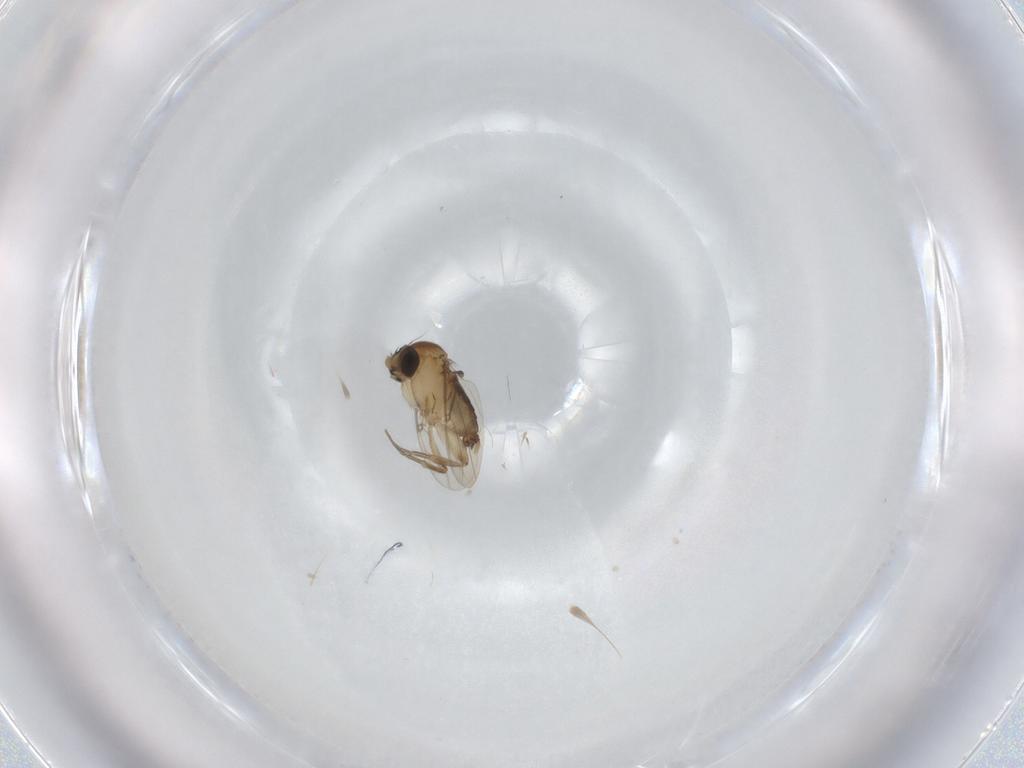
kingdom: Animalia
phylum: Arthropoda
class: Insecta
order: Diptera
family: Phoridae
